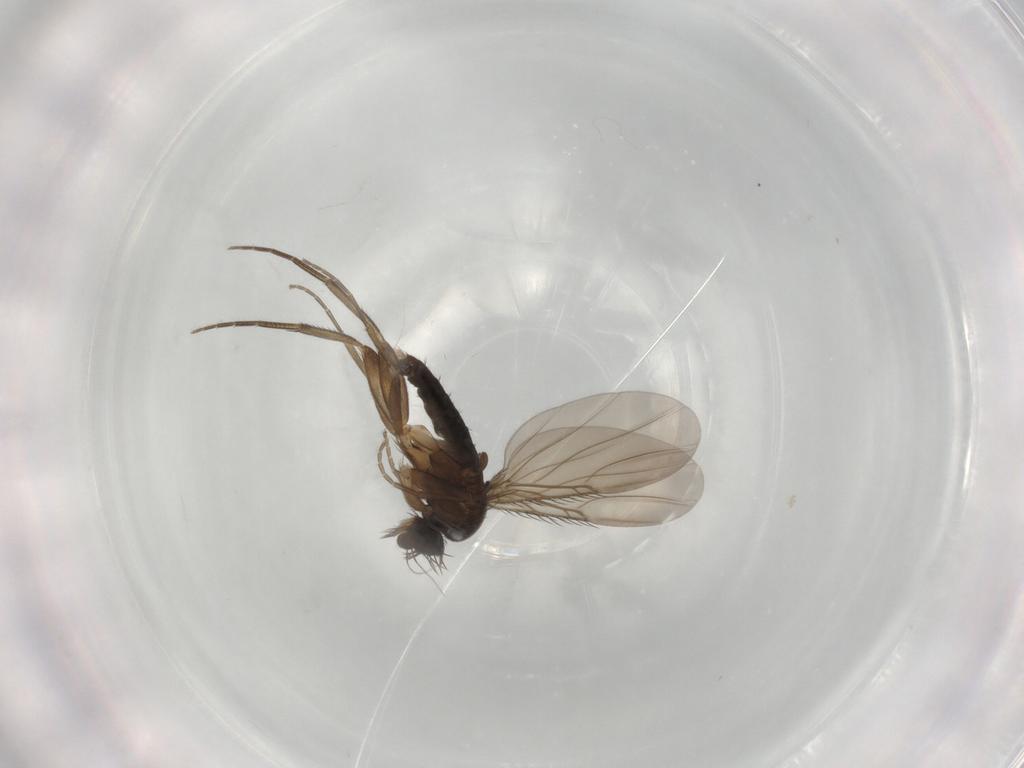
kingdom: Animalia
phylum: Arthropoda
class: Insecta
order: Diptera
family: Phoridae
